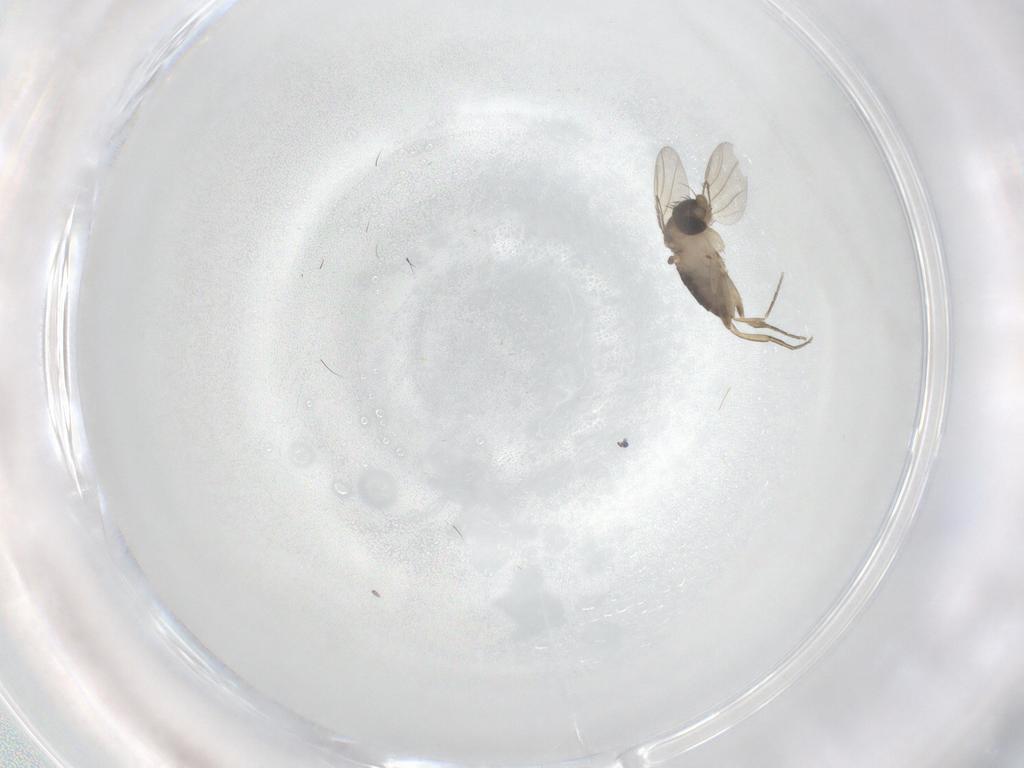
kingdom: Animalia
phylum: Arthropoda
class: Insecta
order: Diptera
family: Phoridae
